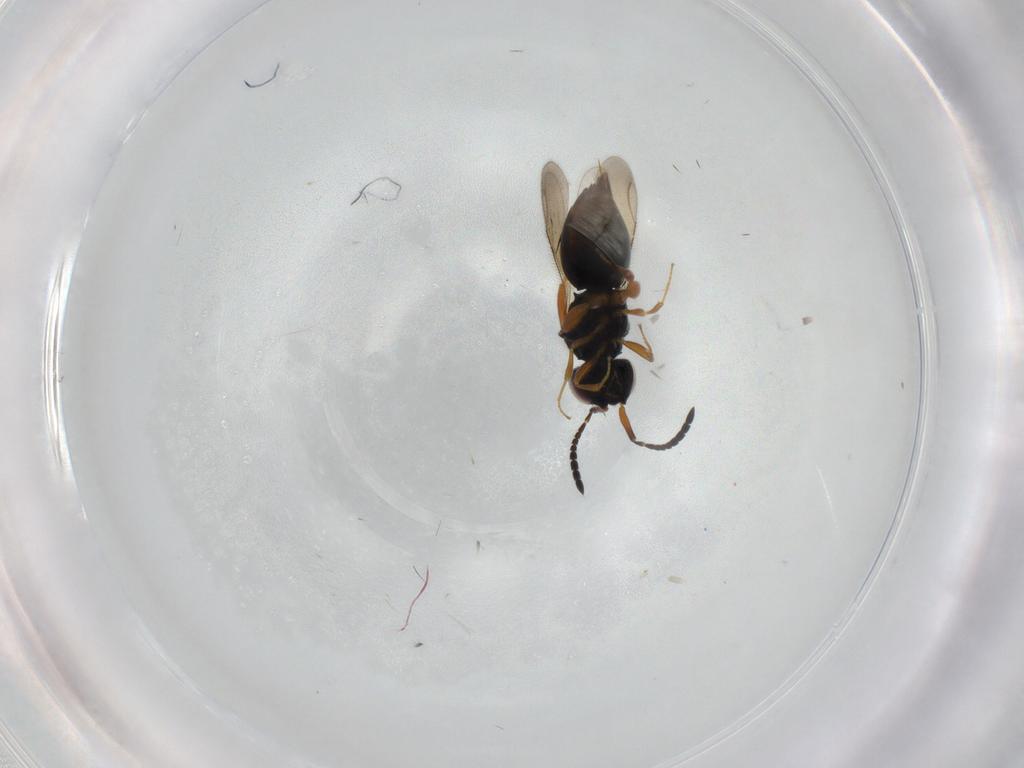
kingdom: Animalia
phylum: Arthropoda
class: Insecta
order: Hymenoptera
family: Ceraphronidae
